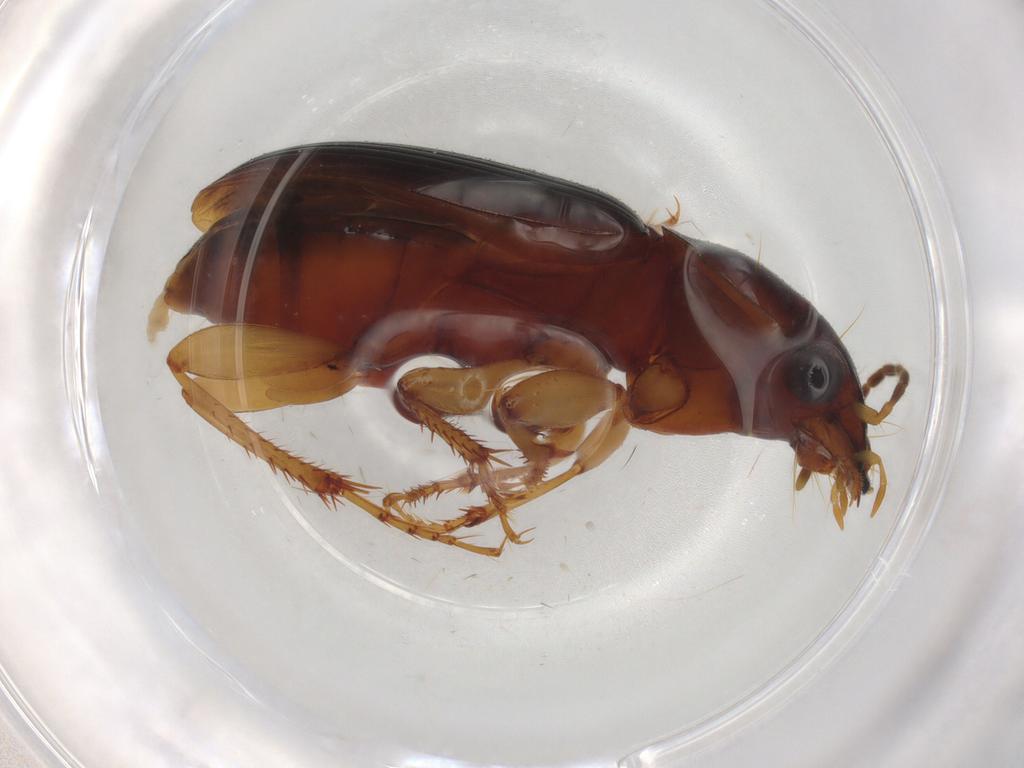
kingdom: Animalia
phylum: Arthropoda
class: Insecta
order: Coleoptera
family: Carabidae
